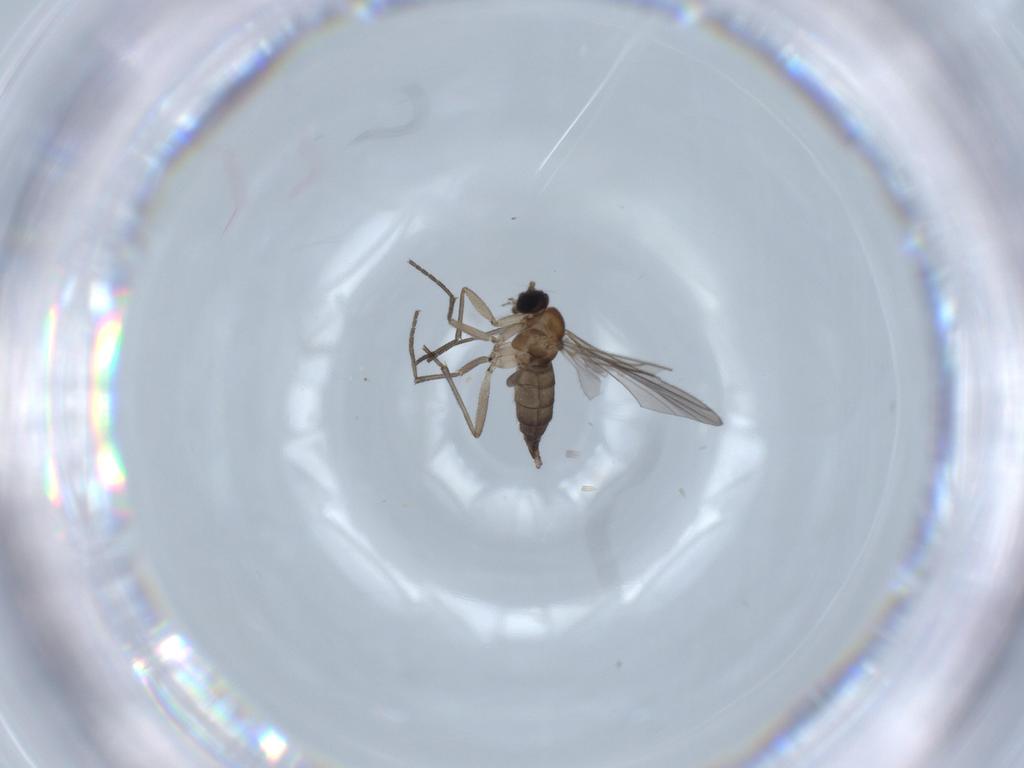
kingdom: Animalia
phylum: Arthropoda
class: Insecta
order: Diptera
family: Sciaridae
